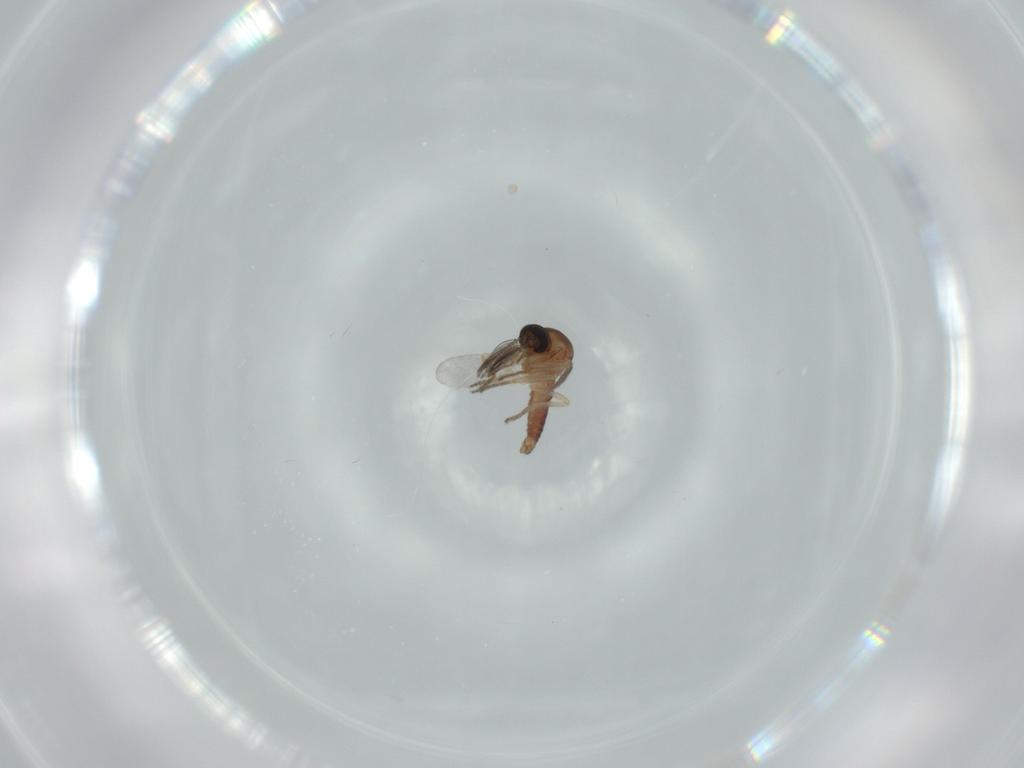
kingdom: Animalia
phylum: Arthropoda
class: Insecta
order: Diptera
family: Ceratopogonidae
